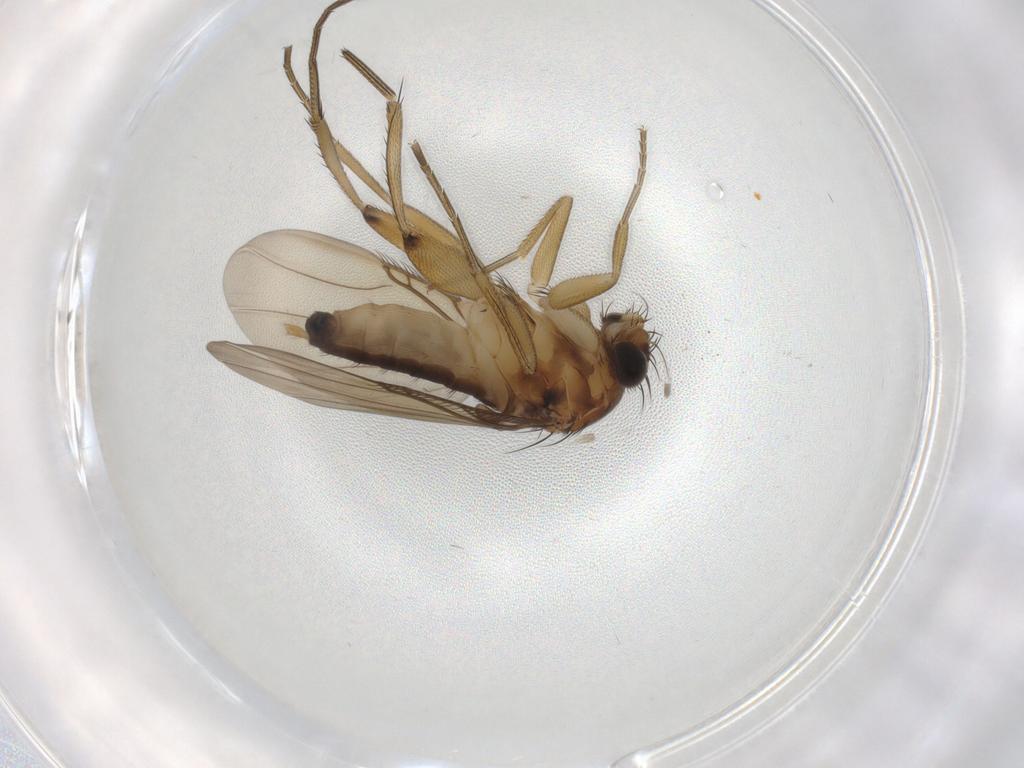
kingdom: Animalia
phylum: Arthropoda
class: Insecta
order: Diptera
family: Phoridae
